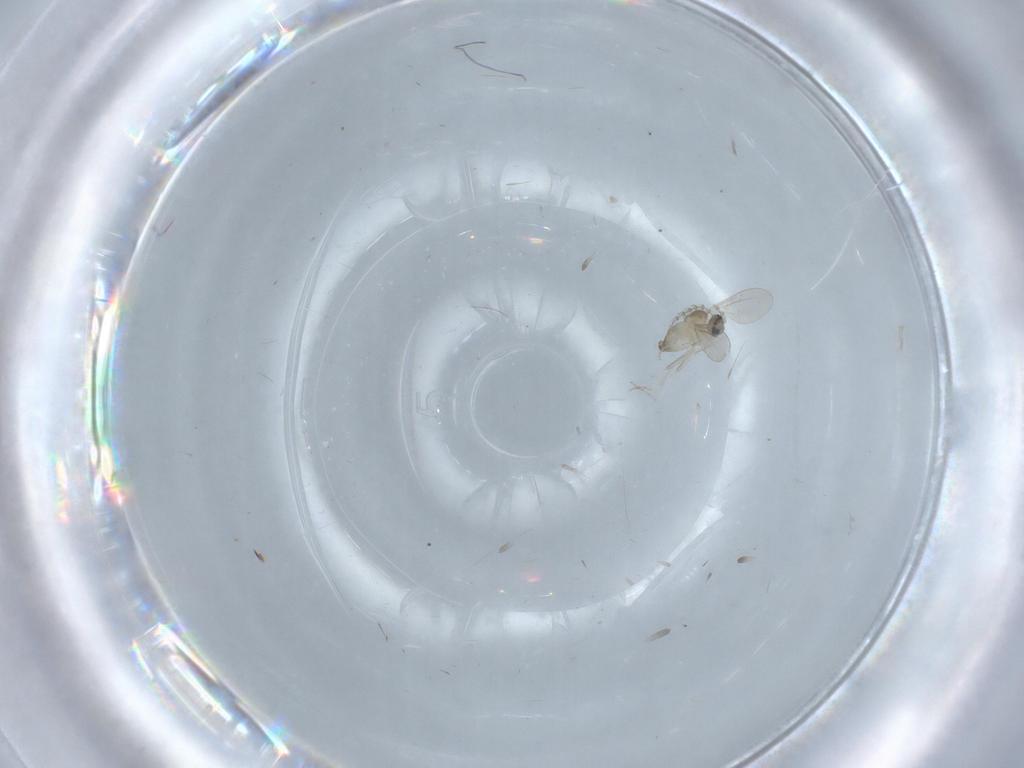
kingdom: Animalia
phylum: Arthropoda
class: Insecta
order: Diptera
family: Cecidomyiidae
